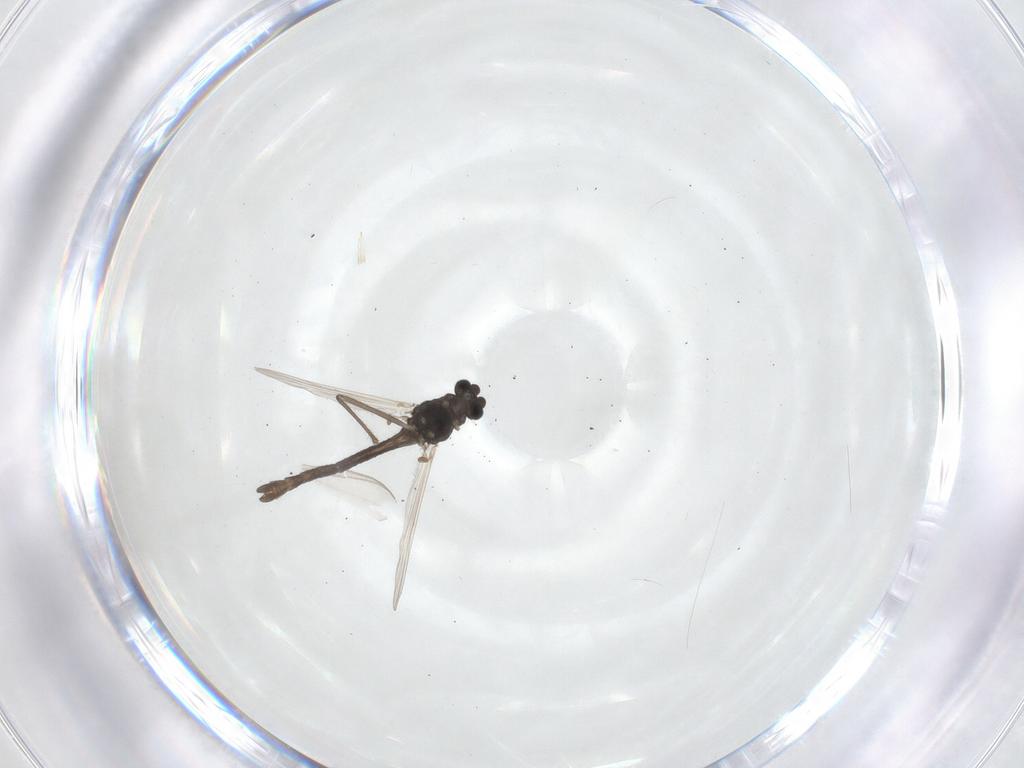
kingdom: Animalia
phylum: Arthropoda
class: Insecta
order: Diptera
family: Chironomidae
